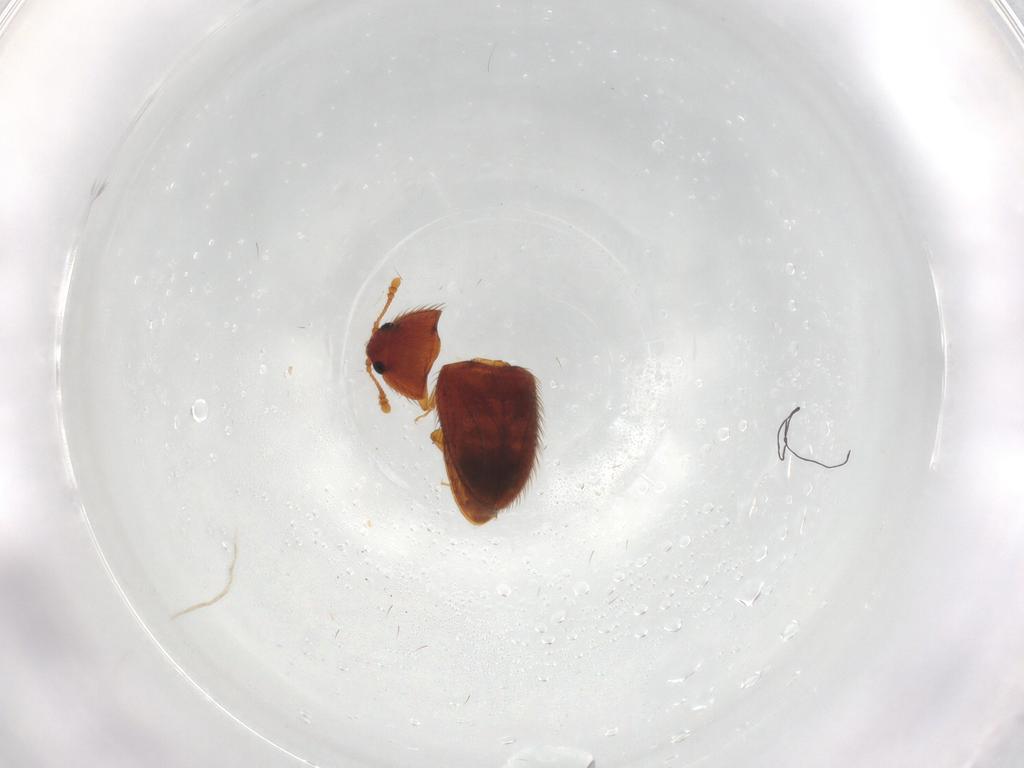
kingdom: Animalia
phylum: Arthropoda
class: Insecta
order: Coleoptera
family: Biphyllidae
